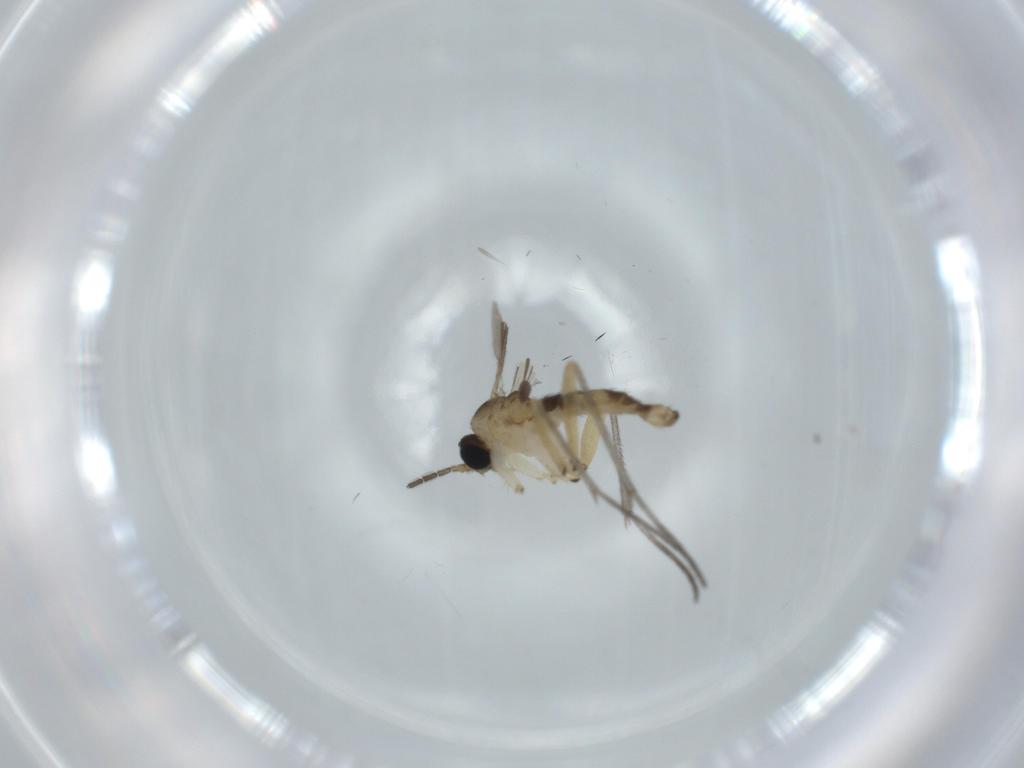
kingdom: Animalia
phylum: Arthropoda
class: Insecta
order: Diptera
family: Sciaridae
